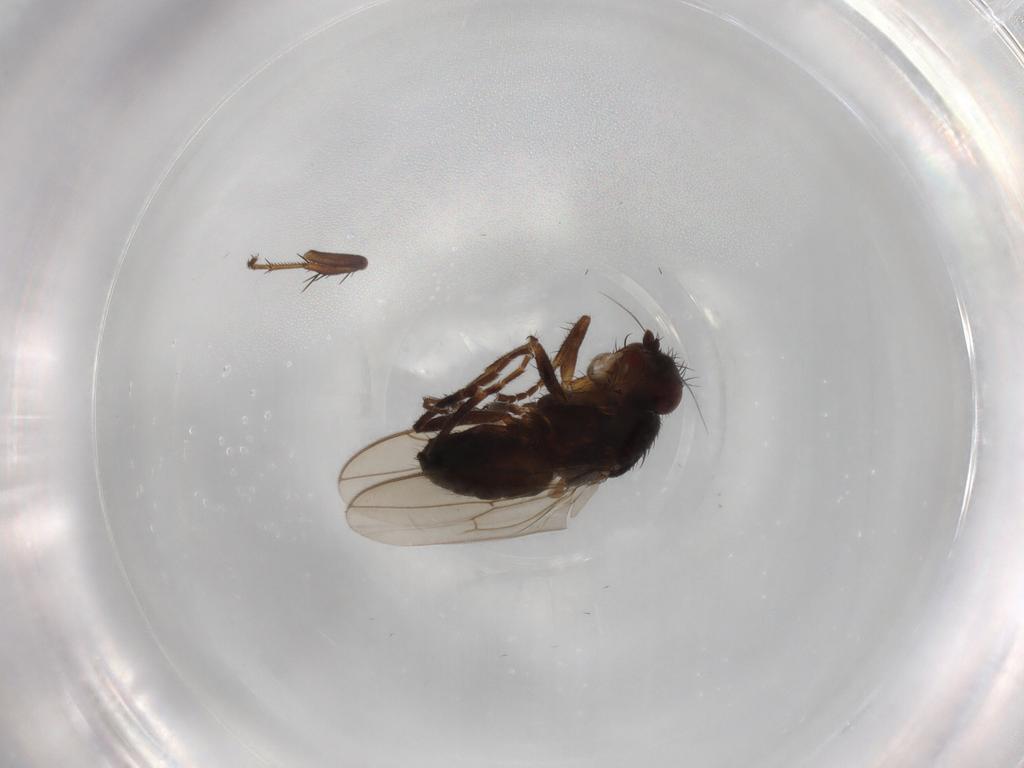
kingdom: Animalia
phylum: Arthropoda
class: Insecta
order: Diptera
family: Sphaeroceridae
